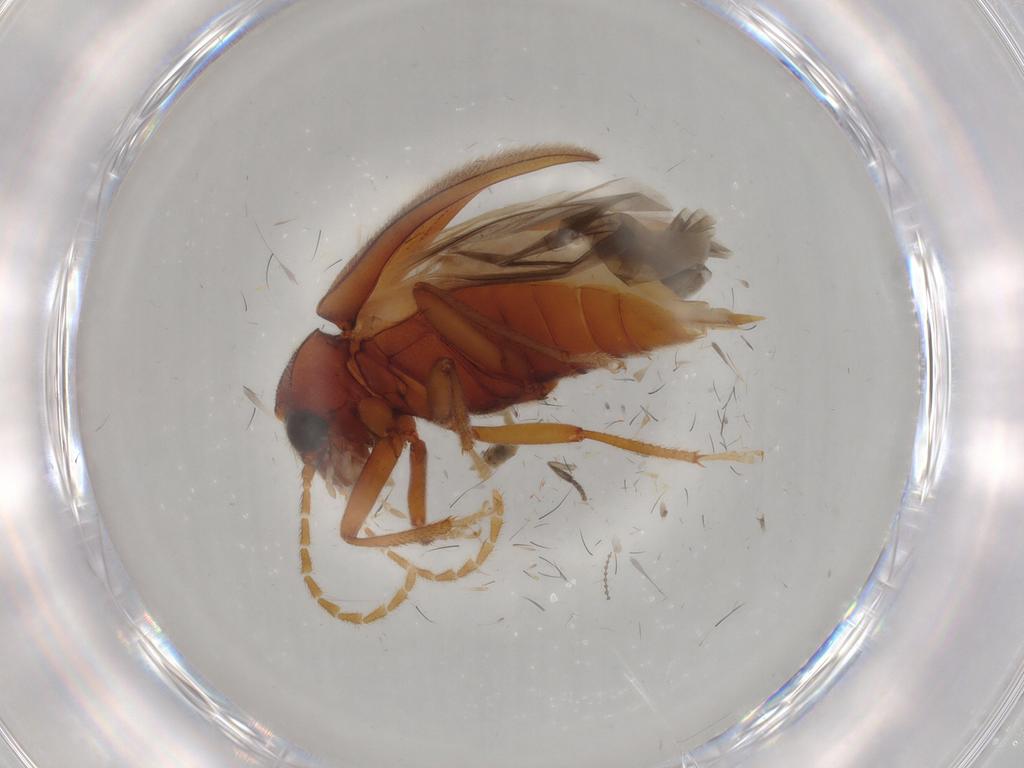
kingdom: Animalia
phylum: Arthropoda
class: Insecta
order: Coleoptera
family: Ptilodactylidae
